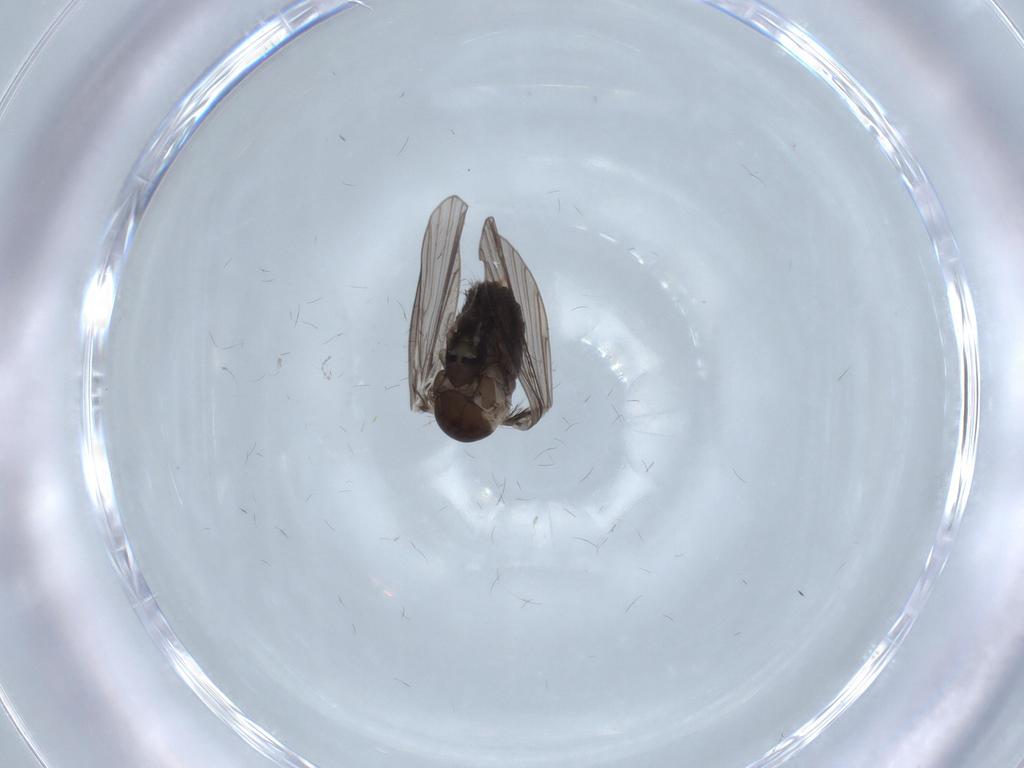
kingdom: Animalia
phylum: Arthropoda
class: Insecta
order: Diptera
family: Psychodidae
